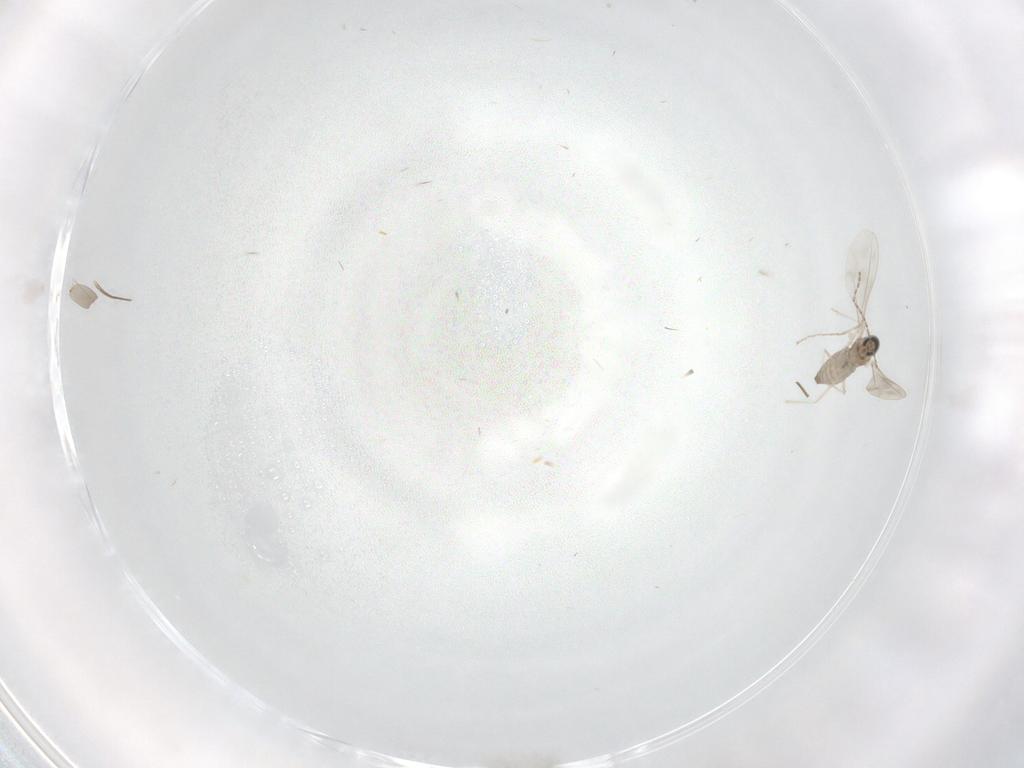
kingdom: Animalia
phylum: Arthropoda
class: Insecta
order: Diptera
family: Cecidomyiidae
